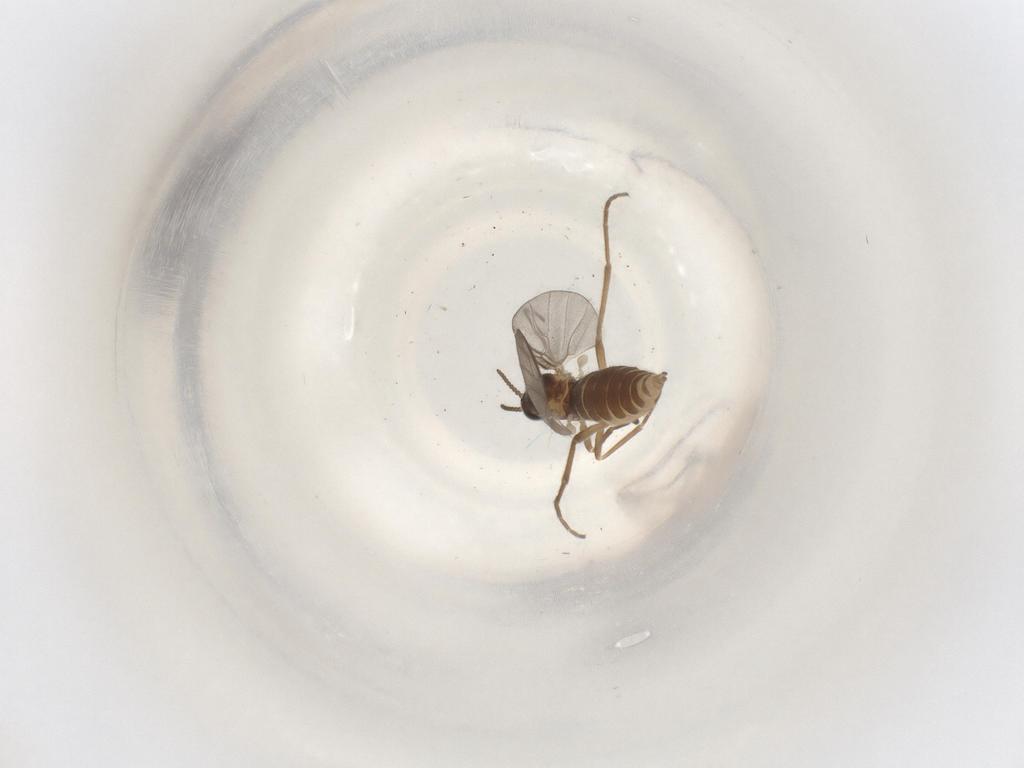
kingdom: Animalia
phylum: Arthropoda
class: Insecta
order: Diptera
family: Cecidomyiidae
